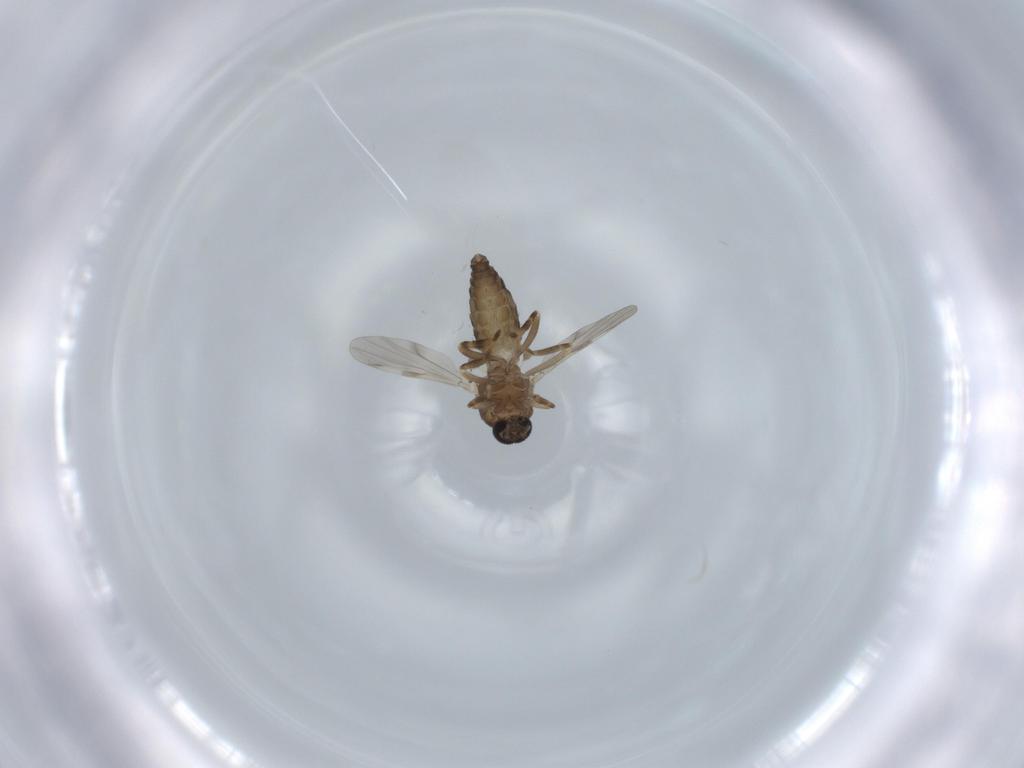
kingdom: Animalia
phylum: Arthropoda
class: Insecta
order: Diptera
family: Ceratopogonidae
